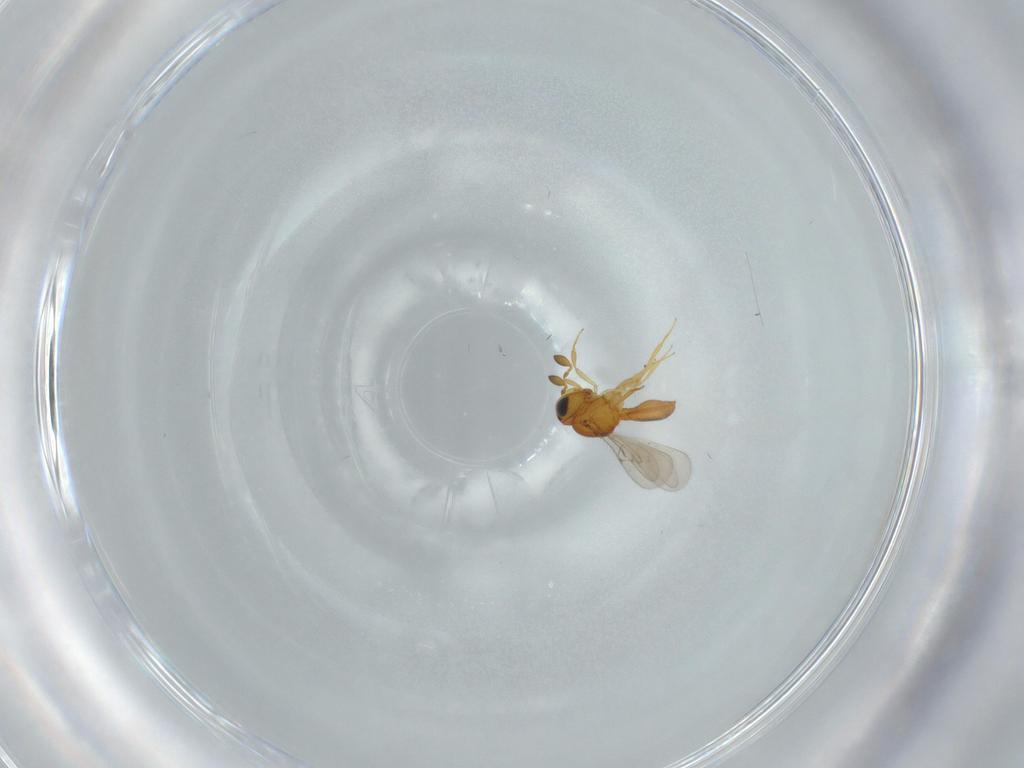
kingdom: Animalia
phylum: Arthropoda
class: Insecta
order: Hymenoptera
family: Scelionidae
